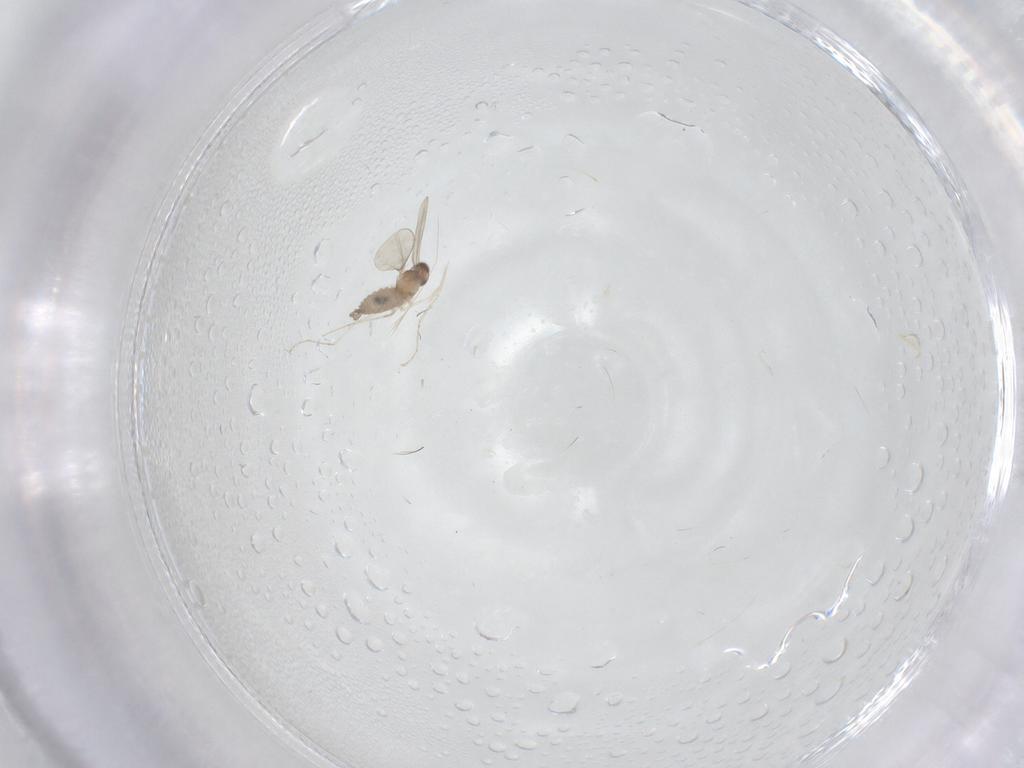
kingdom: Animalia
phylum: Arthropoda
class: Insecta
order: Diptera
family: Cecidomyiidae
